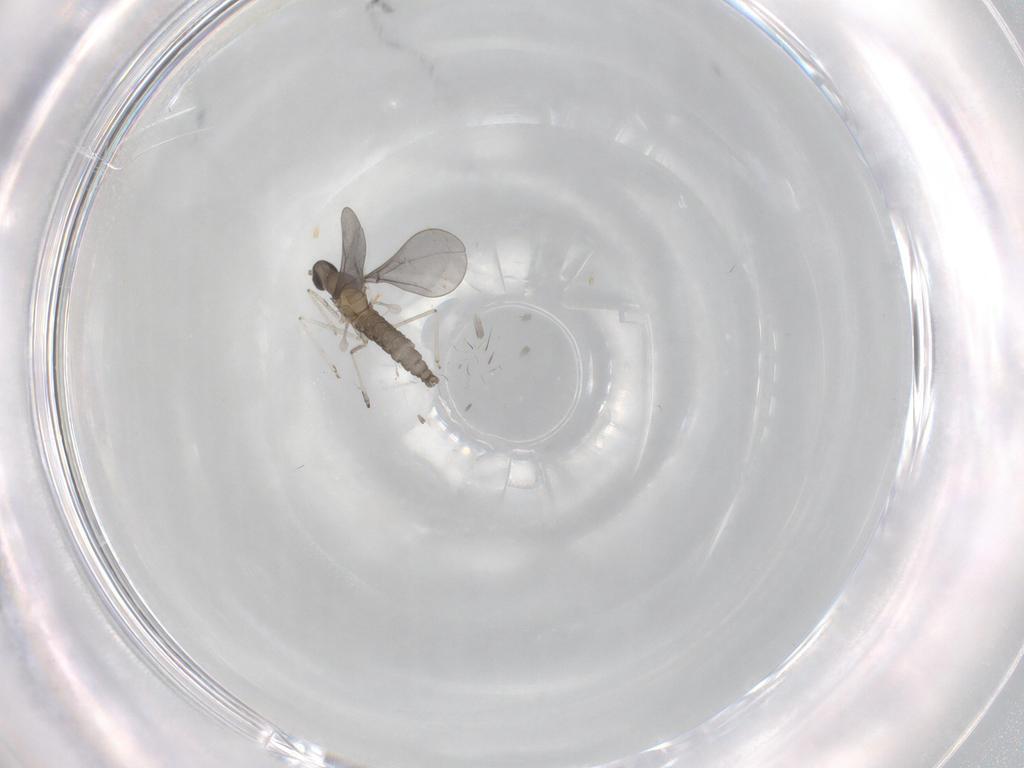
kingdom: Animalia
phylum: Arthropoda
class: Insecta
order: Diptera
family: Cecidomyiidae
